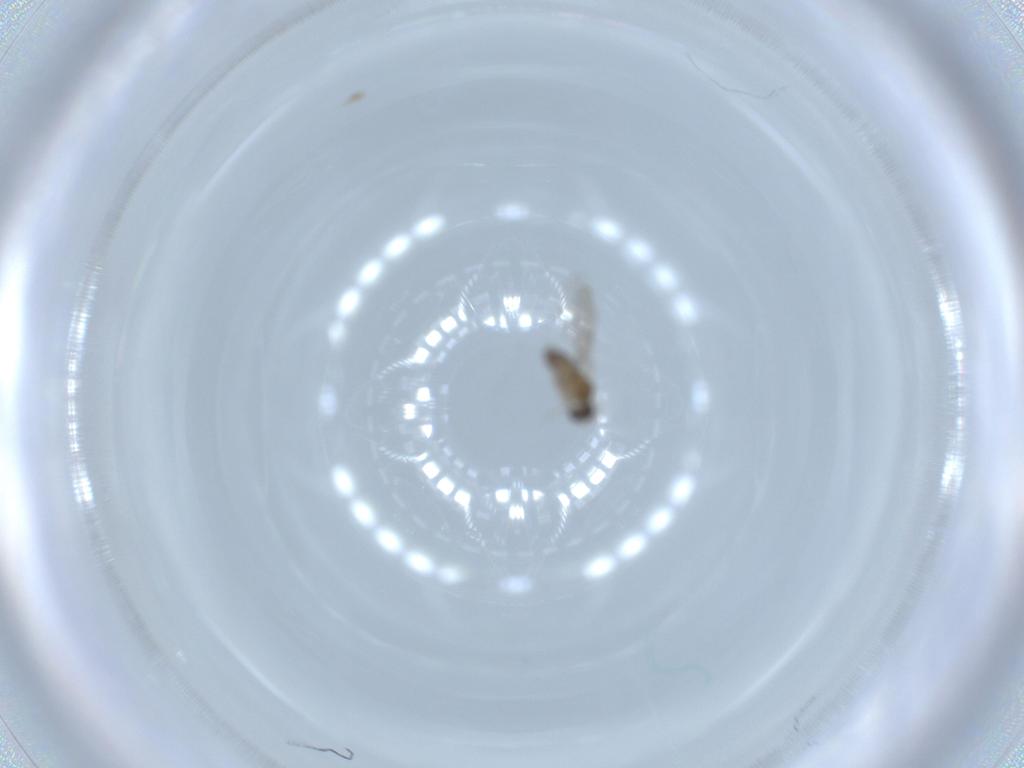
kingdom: Animalia
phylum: Arthropoda
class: Insecta
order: Diptera
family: Cecidomyiidae
